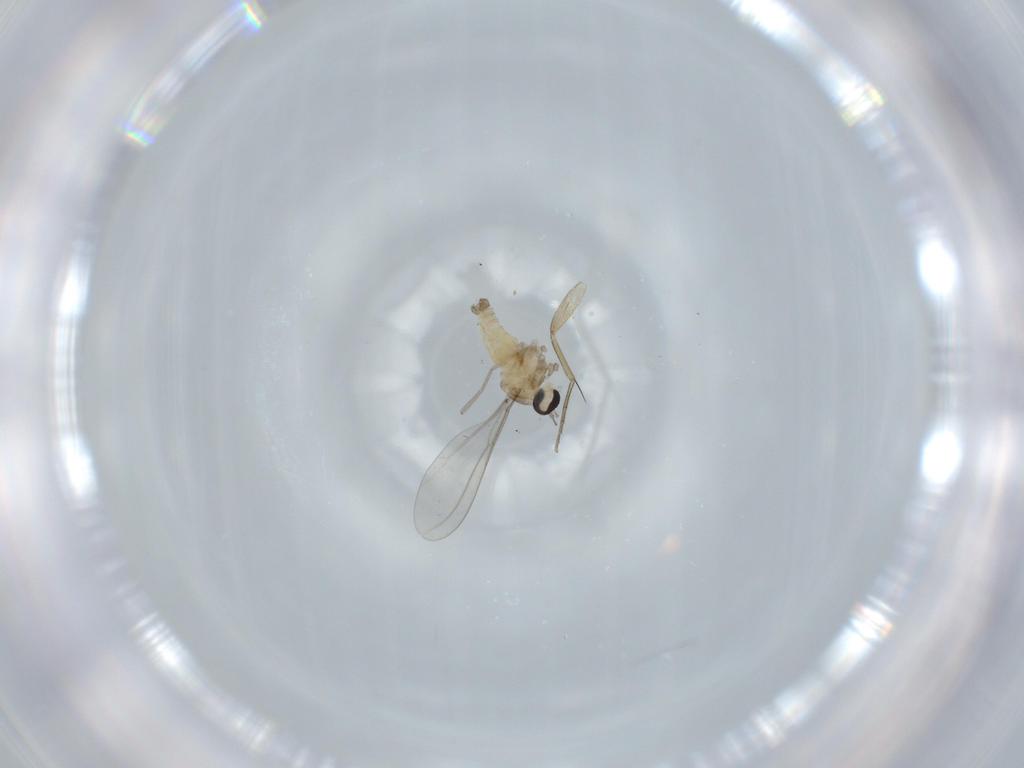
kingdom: Animalia
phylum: Arthropoda
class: Insecta
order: Diptera
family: Cecidomyiidae
